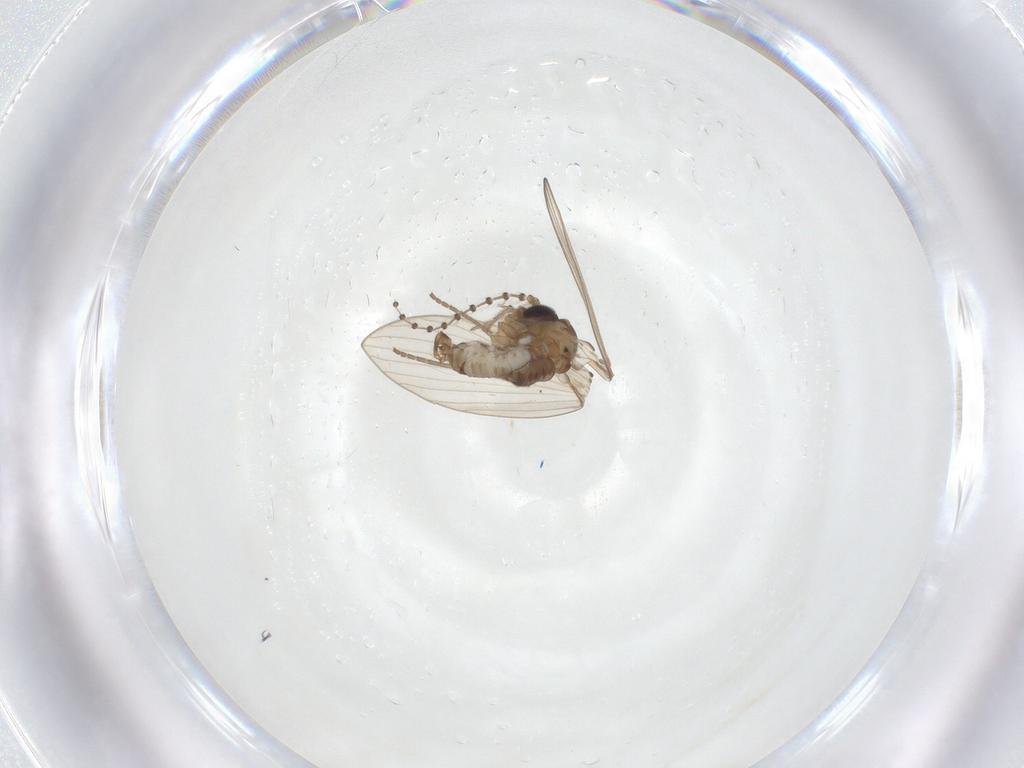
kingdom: Animalia
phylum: Arthropoda
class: Insecta
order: Diptera
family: Psychodidae
